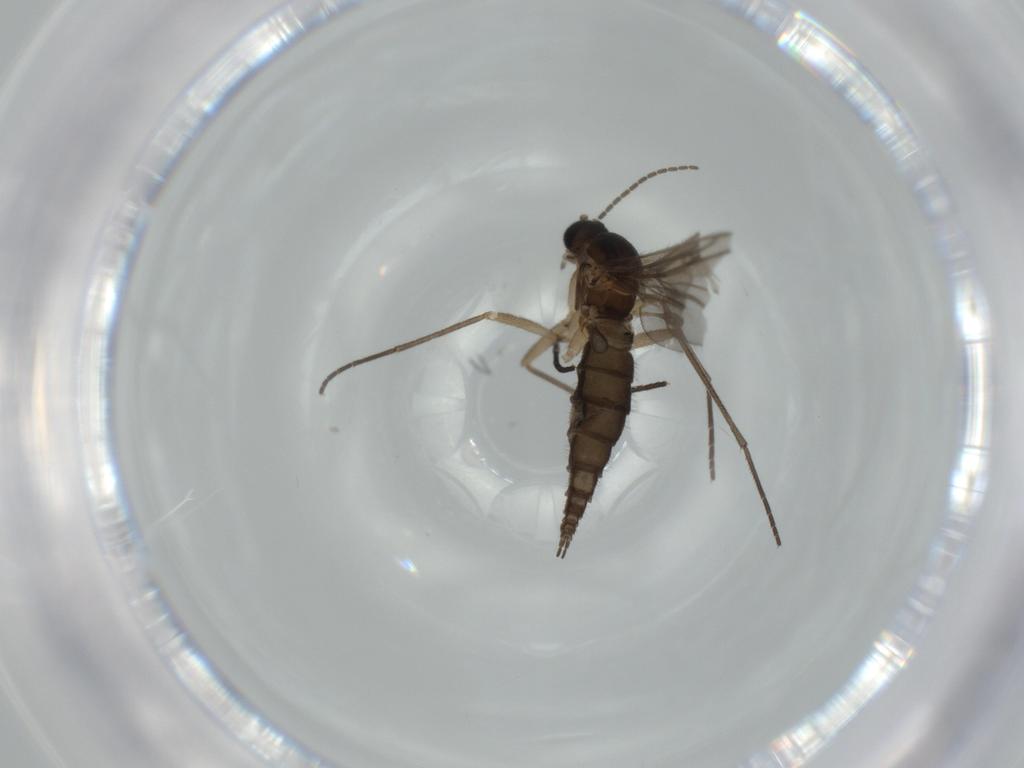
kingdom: Animalia
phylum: Arthropoda
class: Insecta
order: Diptera
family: Sciaridae
